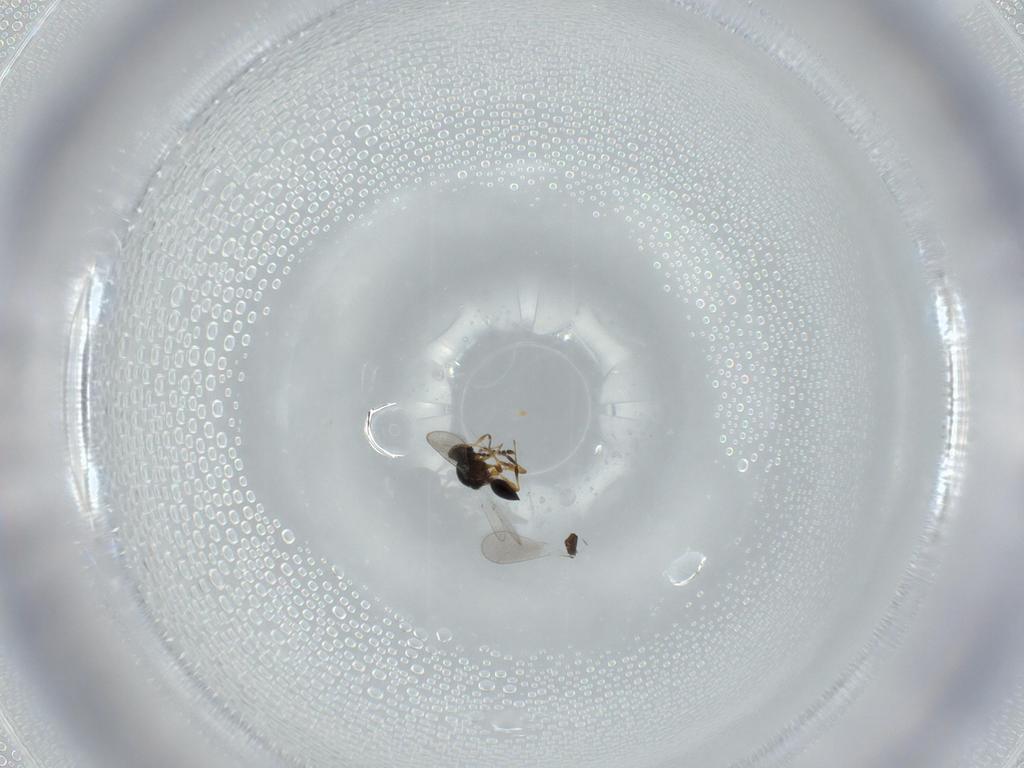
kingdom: Animalia
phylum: Arthropoda
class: Insecta
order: Hymenoptera
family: Platygastridae
